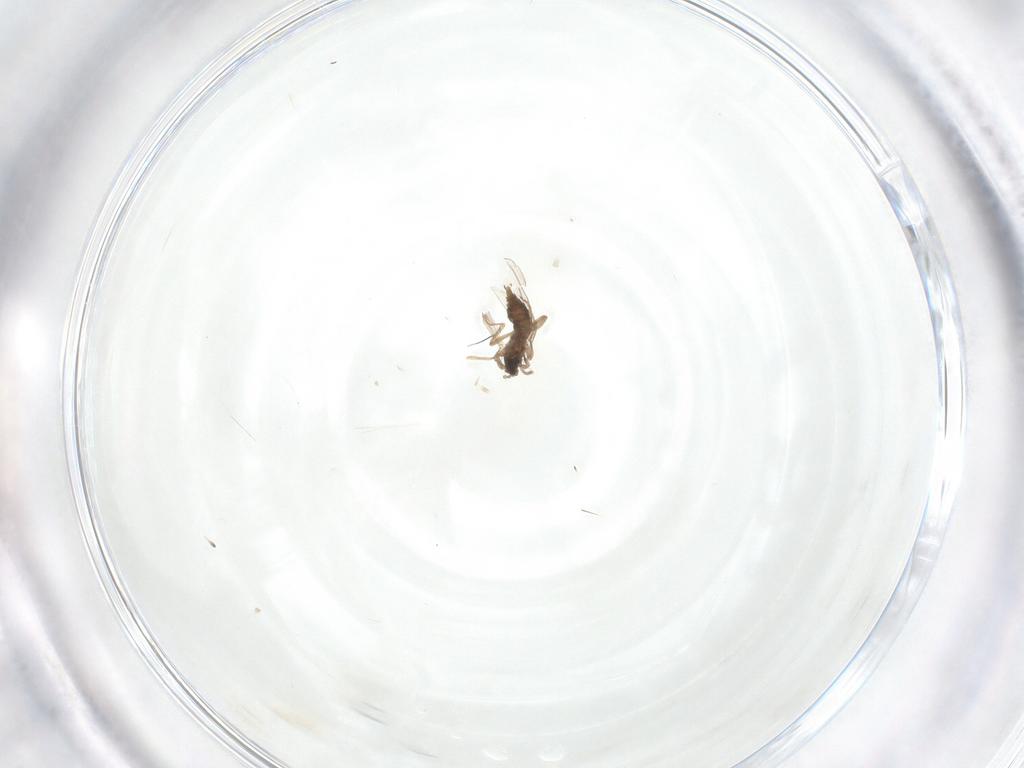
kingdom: Animalia
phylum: Arthropoda
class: Insecta
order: Diptera
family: Cecidomyiidae
